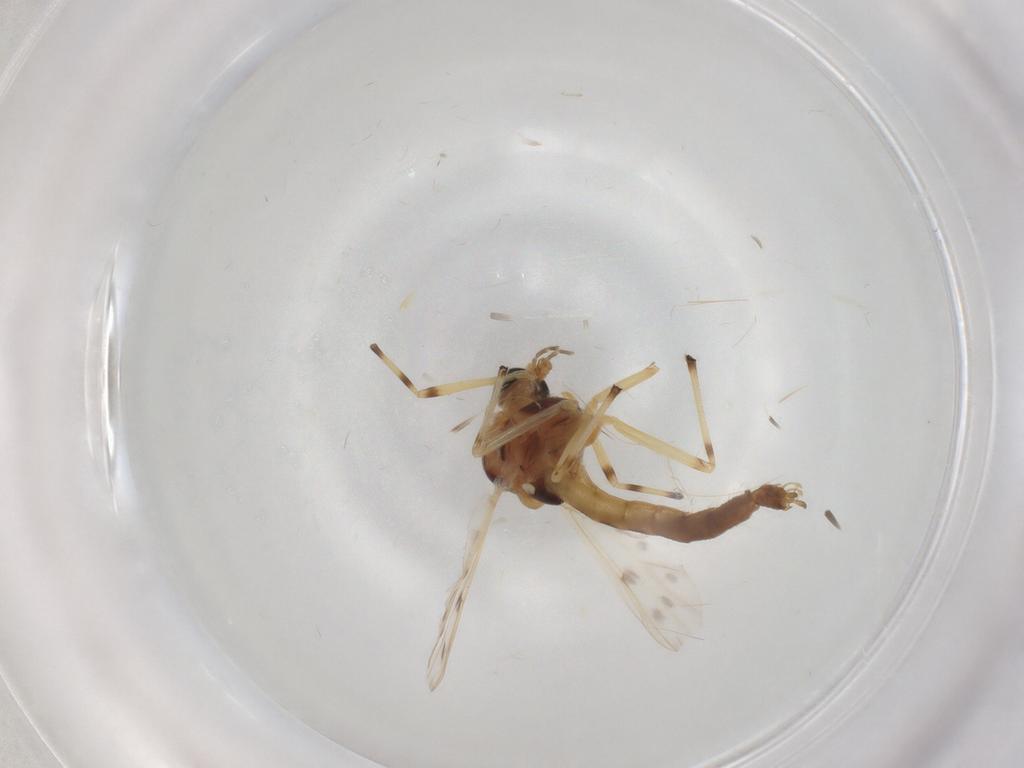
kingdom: Animalia
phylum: Arthropoda
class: Insecta
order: Diptera
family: Chironomidae
